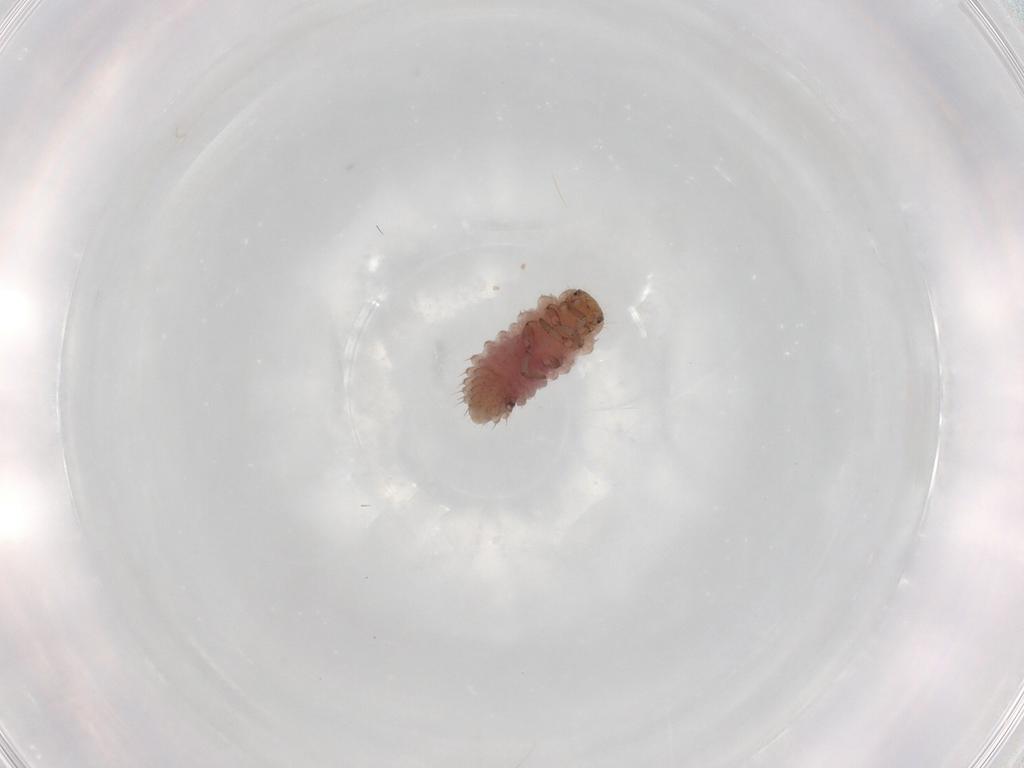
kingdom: Animalia
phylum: Arthropoda
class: Insecta
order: Coleoptera
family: Coccinellidae
